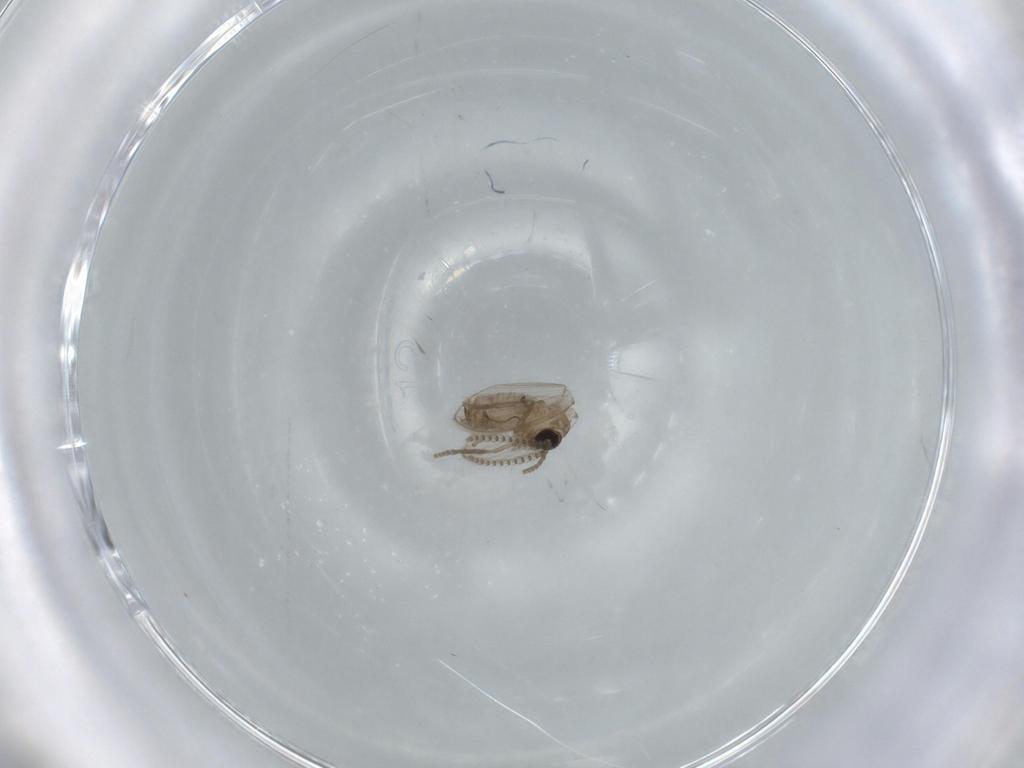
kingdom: Animalia
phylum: Arthropoda
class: Insecta
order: Diptera
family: Psychodidae
